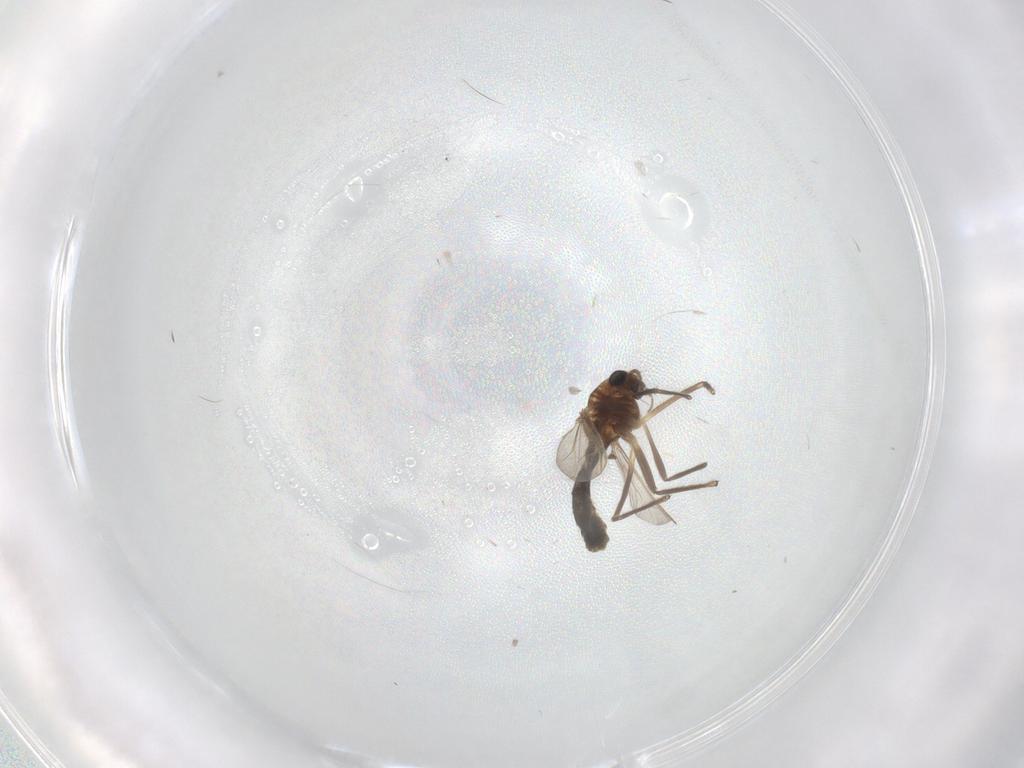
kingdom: Animalia
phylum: Arthropoda
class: Insecta
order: Diptera
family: Chironomidae
